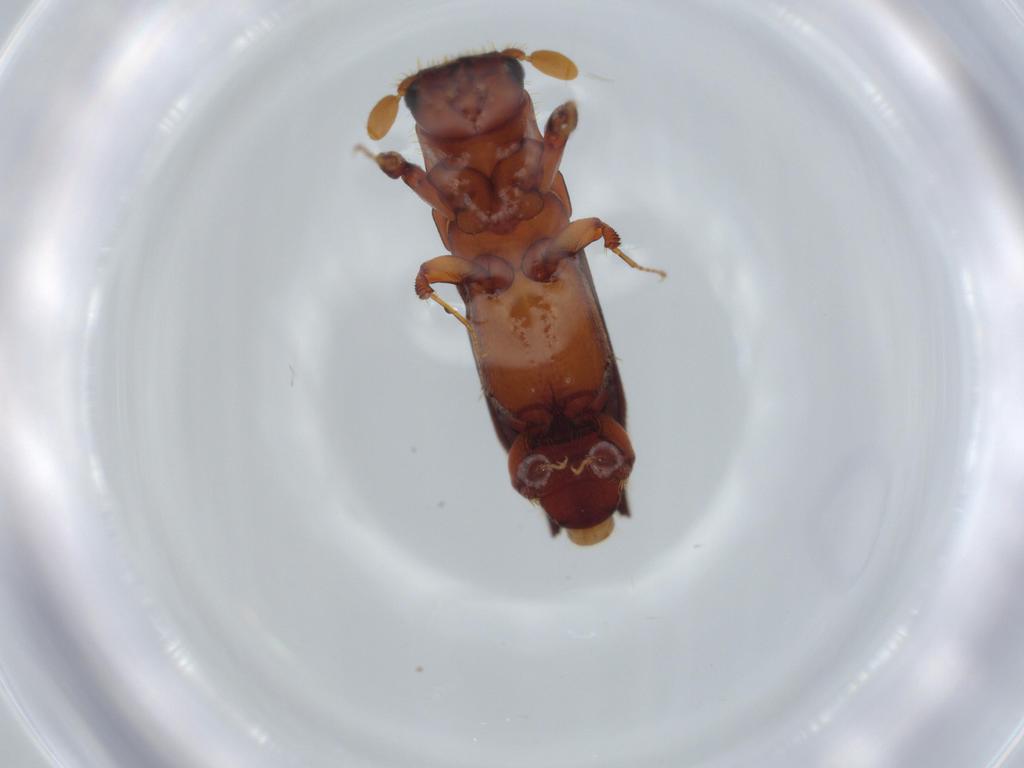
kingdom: Animalia
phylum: Arthropoda
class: Insecta
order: Coleoptera
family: Curculionidae
